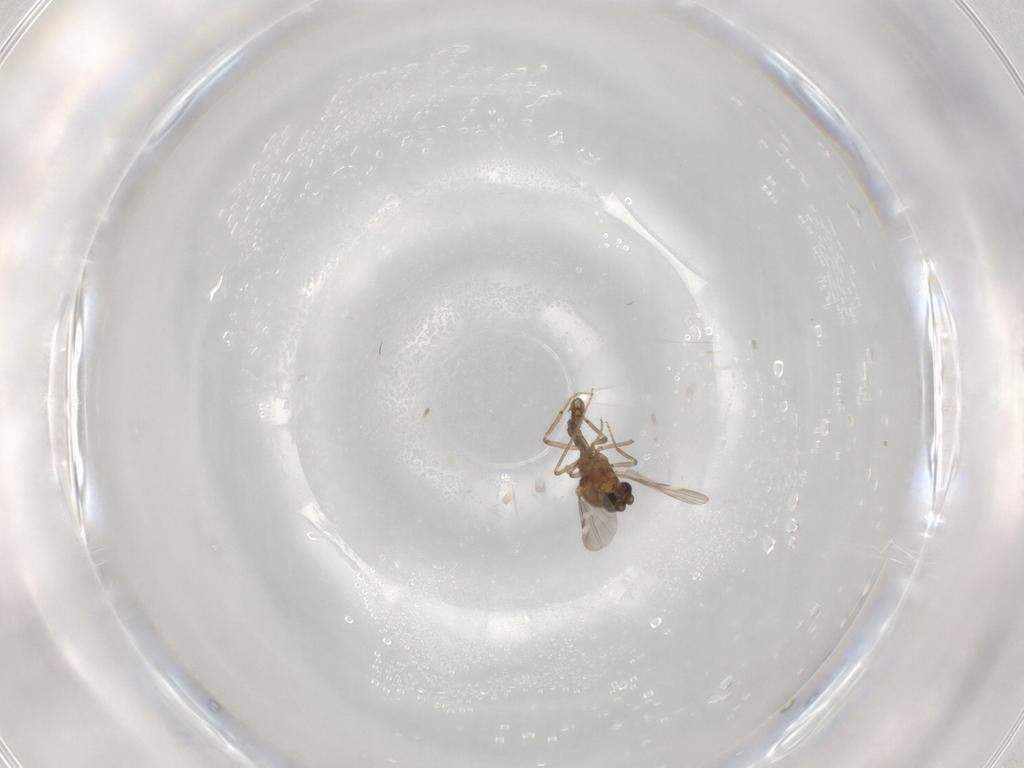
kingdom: Animalia
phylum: Arthropoda
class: Insecta
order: Diptera
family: Ceratopogonidae
